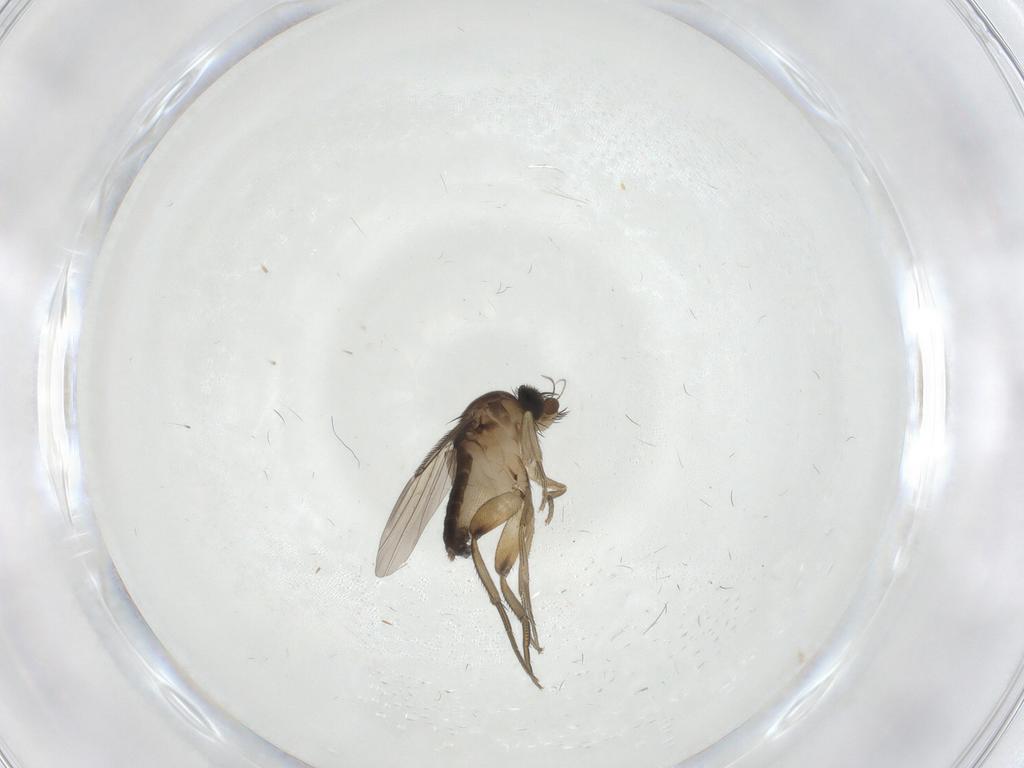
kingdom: Animalia
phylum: Arthropoda
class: Insecta
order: Diptera
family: Phoridae
